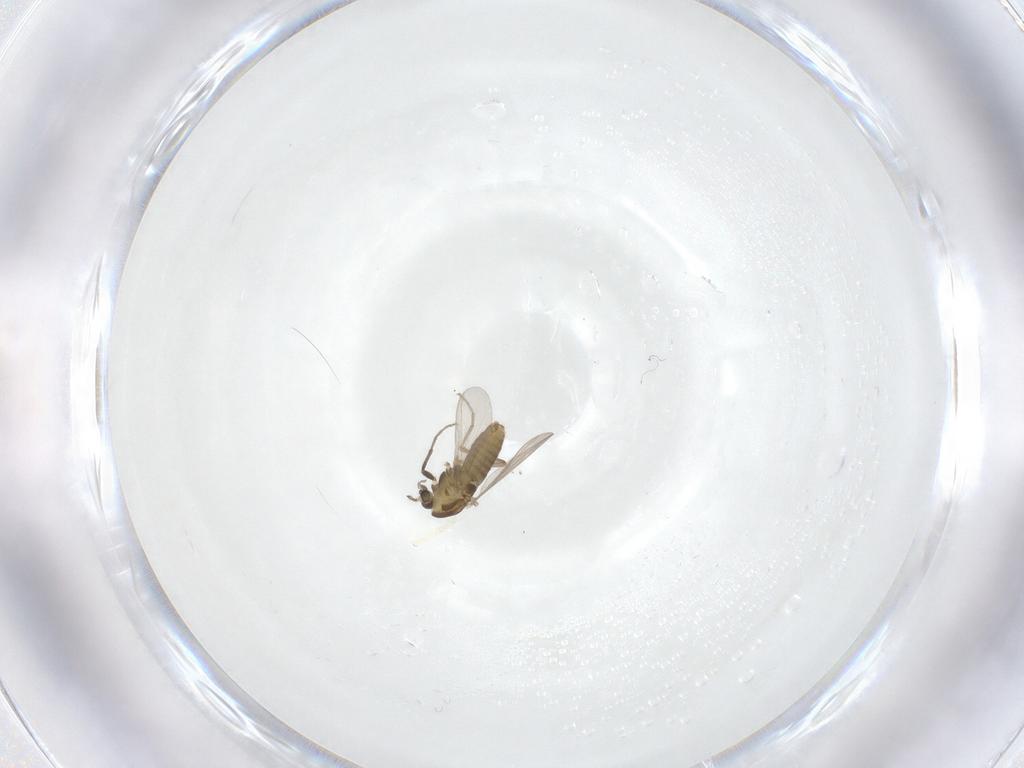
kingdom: Animalia
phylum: Arthropoda
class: Insecta
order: Diptera
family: Chironomidae
